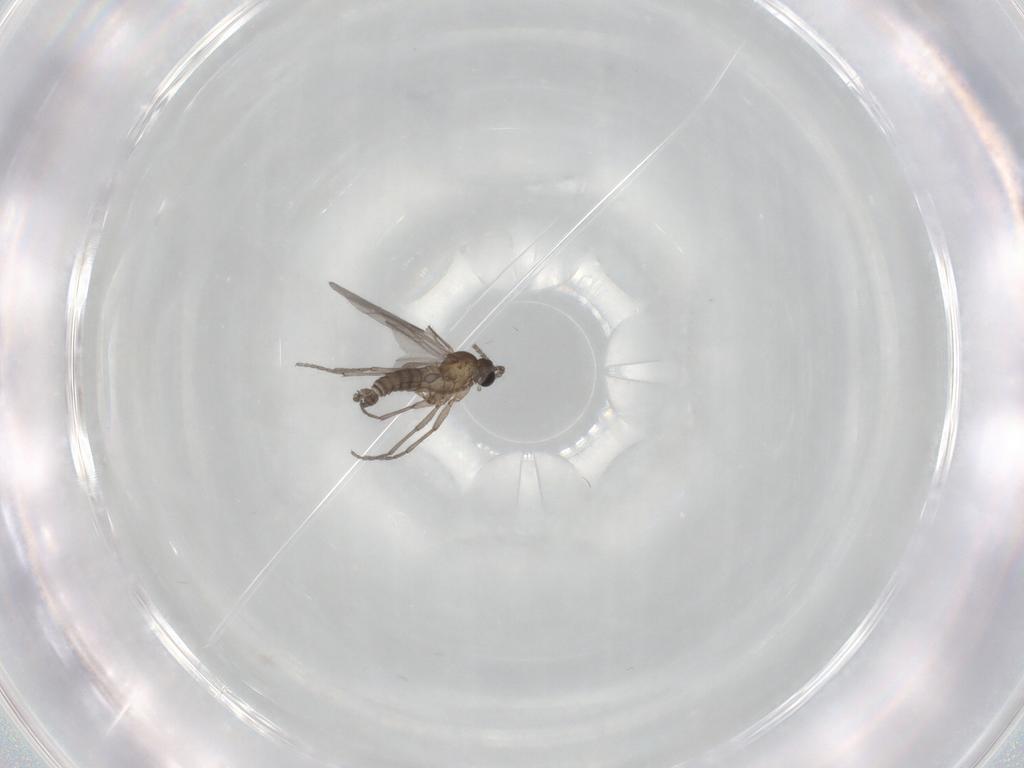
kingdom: Animalia
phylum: Arthropoda
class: Insecta
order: Diptera
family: Sciaridae
